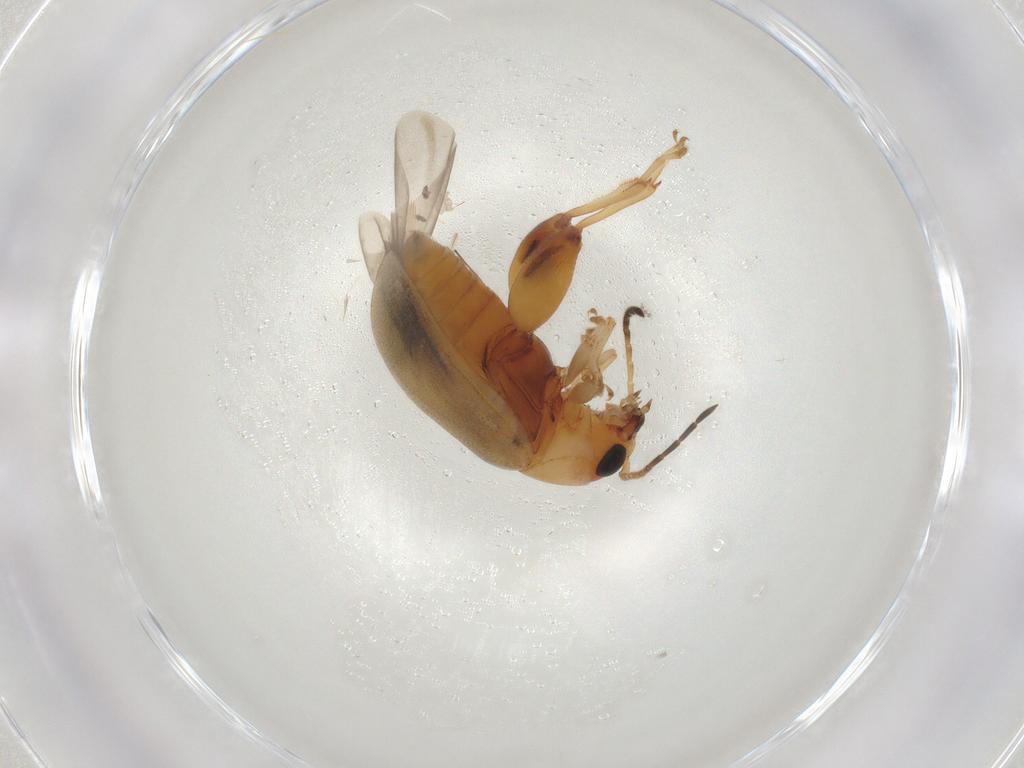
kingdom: Animalia
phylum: Arthropoda
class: Insecta
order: Coleoptera
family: Chrysomelidae
